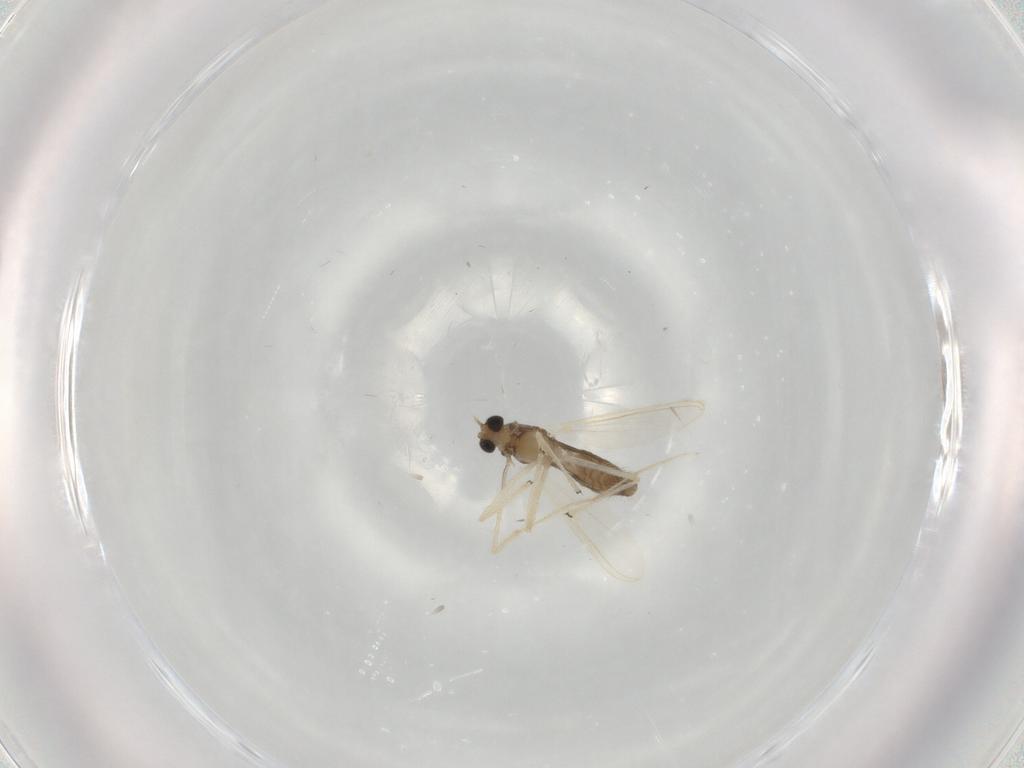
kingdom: Animalia
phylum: Arthropoda
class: Insecta
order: Diptera
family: Chironomidae
